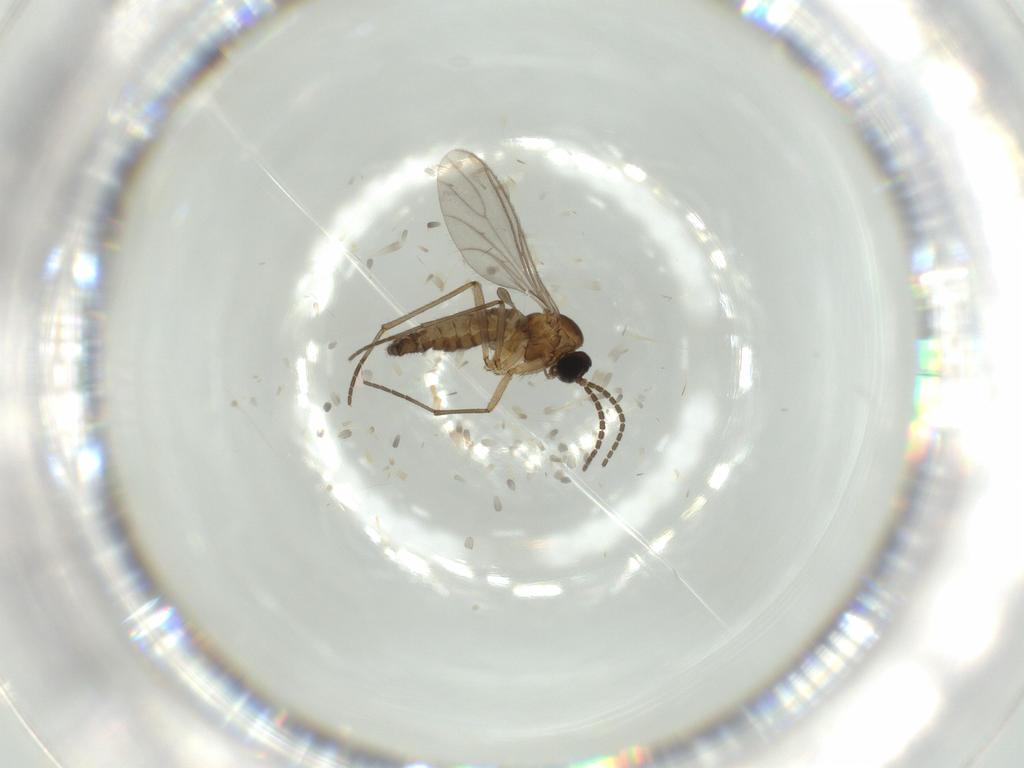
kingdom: Animalia
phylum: Arthropoda
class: Insecta
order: Diptera
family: Sciaridae
